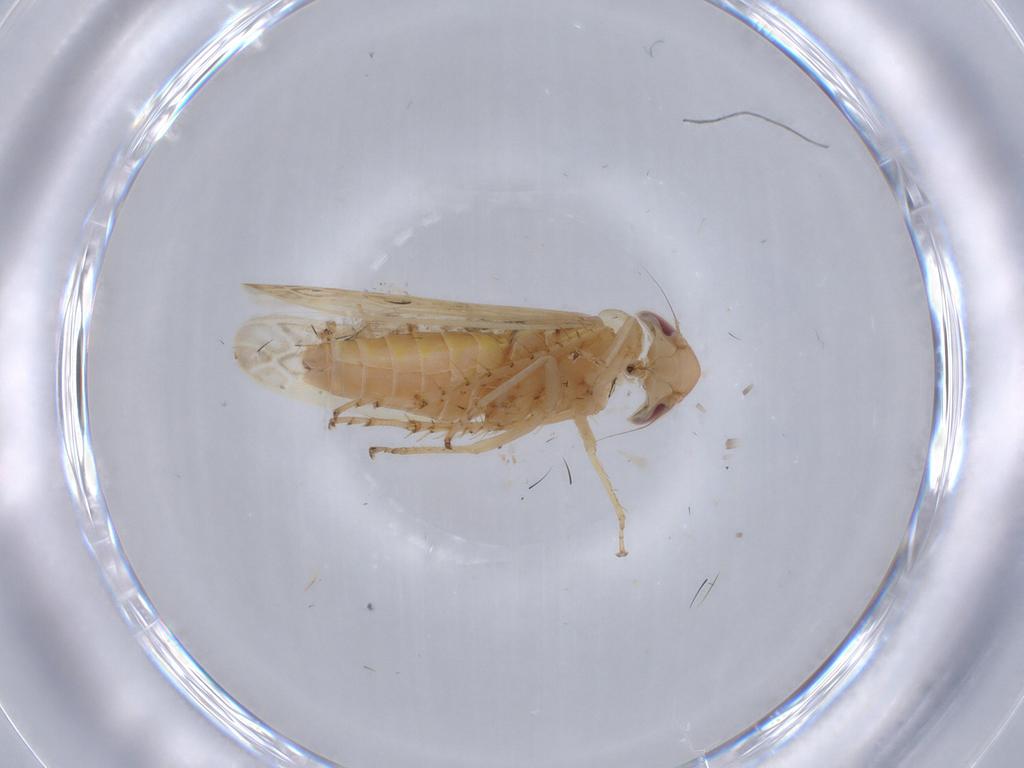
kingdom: Animalia
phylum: Arthropoda
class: Insecta
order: Hemiptera
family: Cicadellidae
